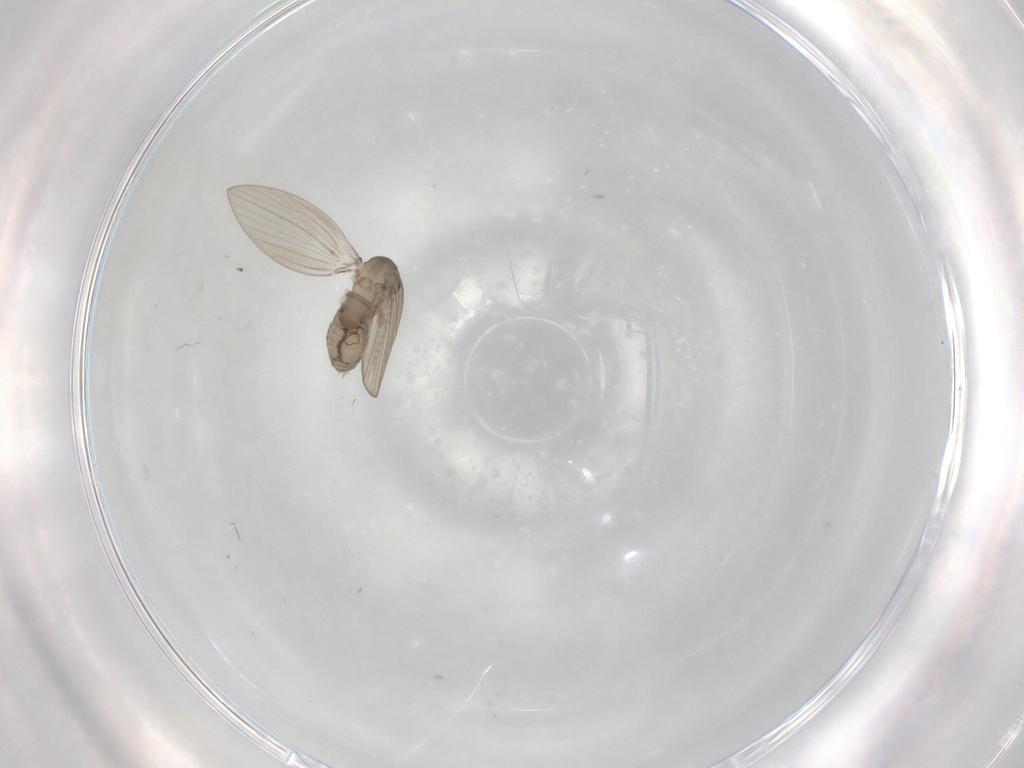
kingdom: Animalia
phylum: Arthropoda
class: Insecta
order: Diptera
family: Psychodidae
